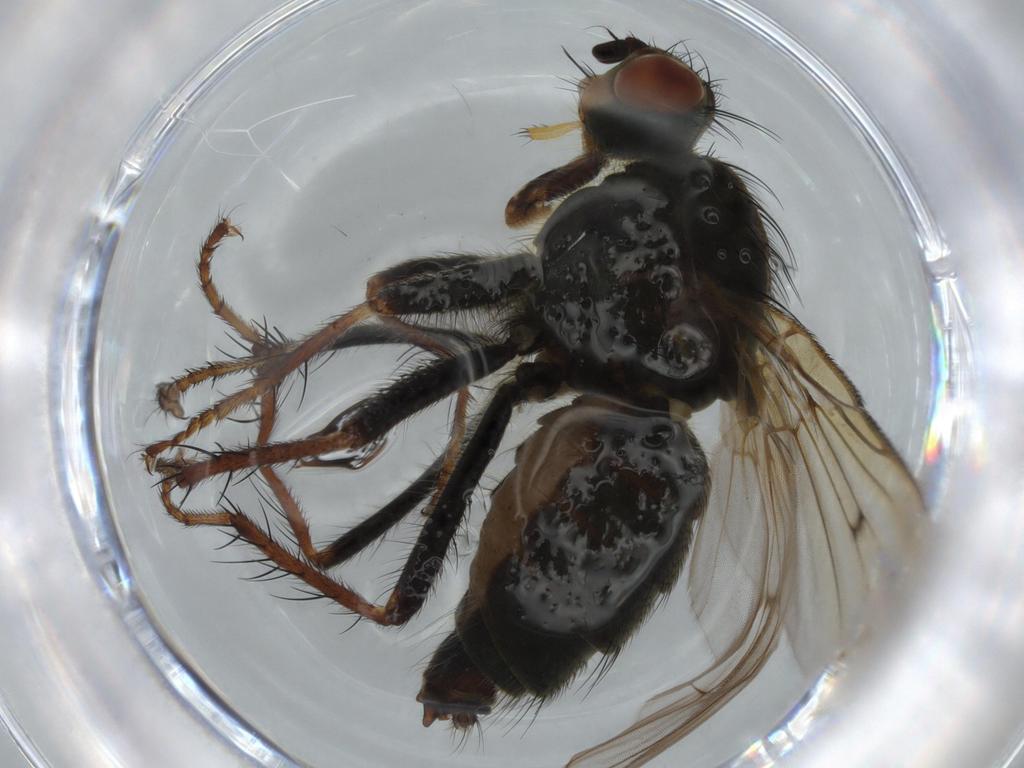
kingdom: Animalia
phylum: Arthropoda
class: Insecta
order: Diptera
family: Scathophagidae
